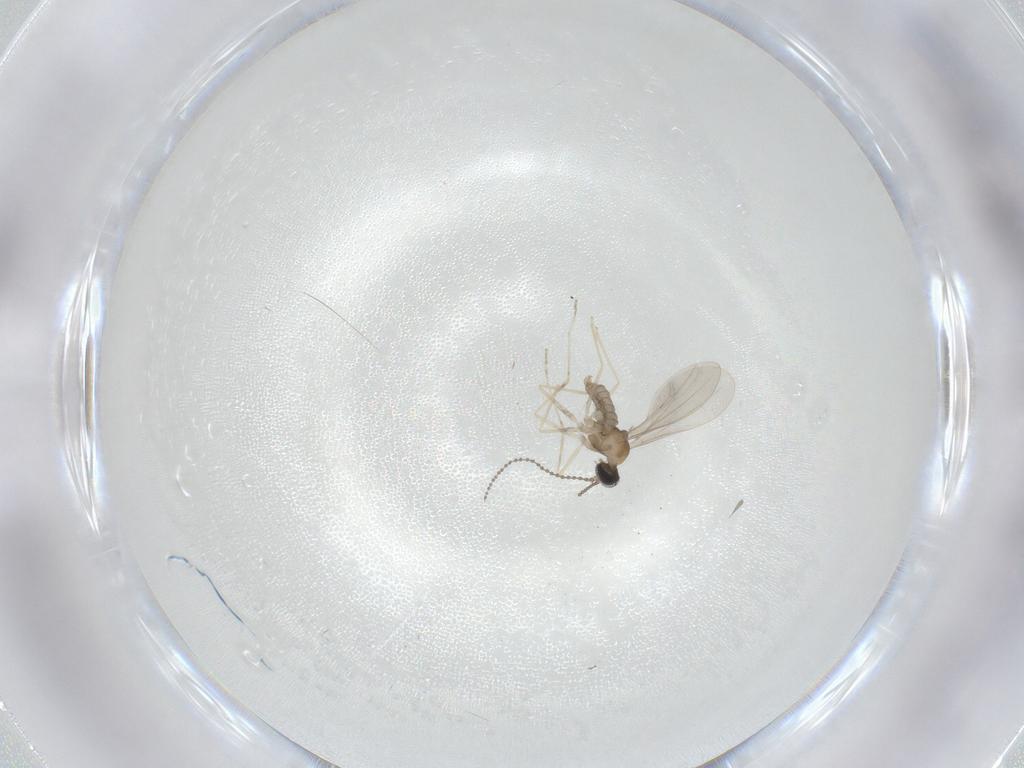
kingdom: Animalia
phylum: Arthropoda
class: Insecta
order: Diptera
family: Cecidomyiidae
